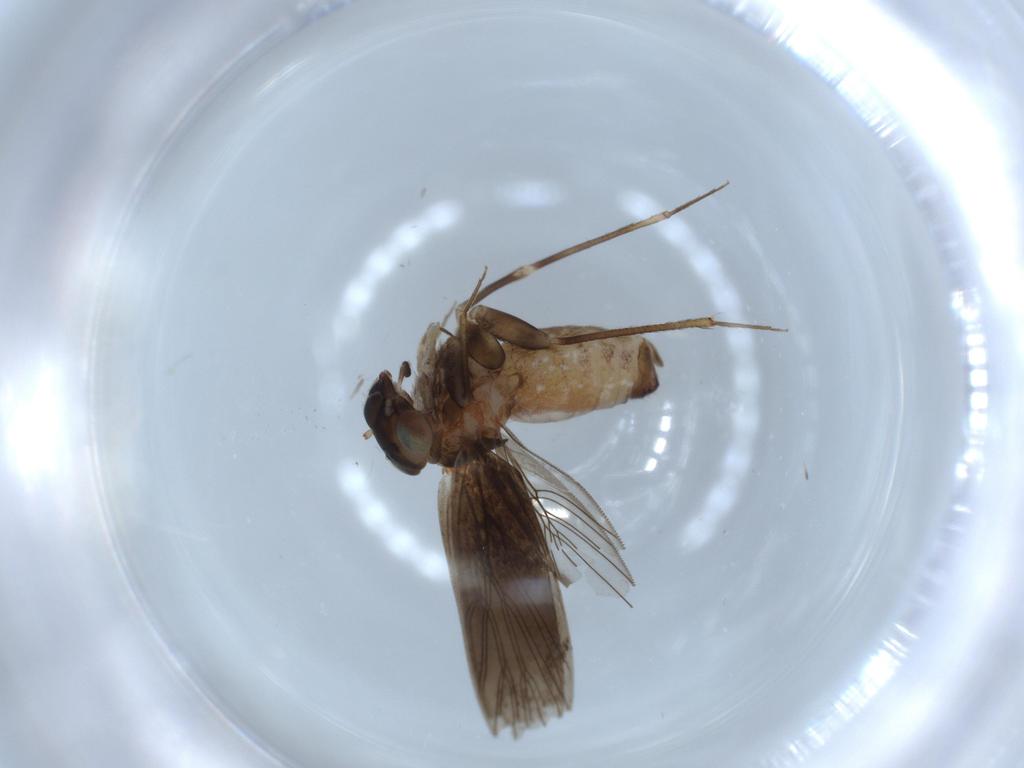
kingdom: Animalia
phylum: Arthropoda
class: Insecta
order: Psocodea
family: Lepidopsocidae
